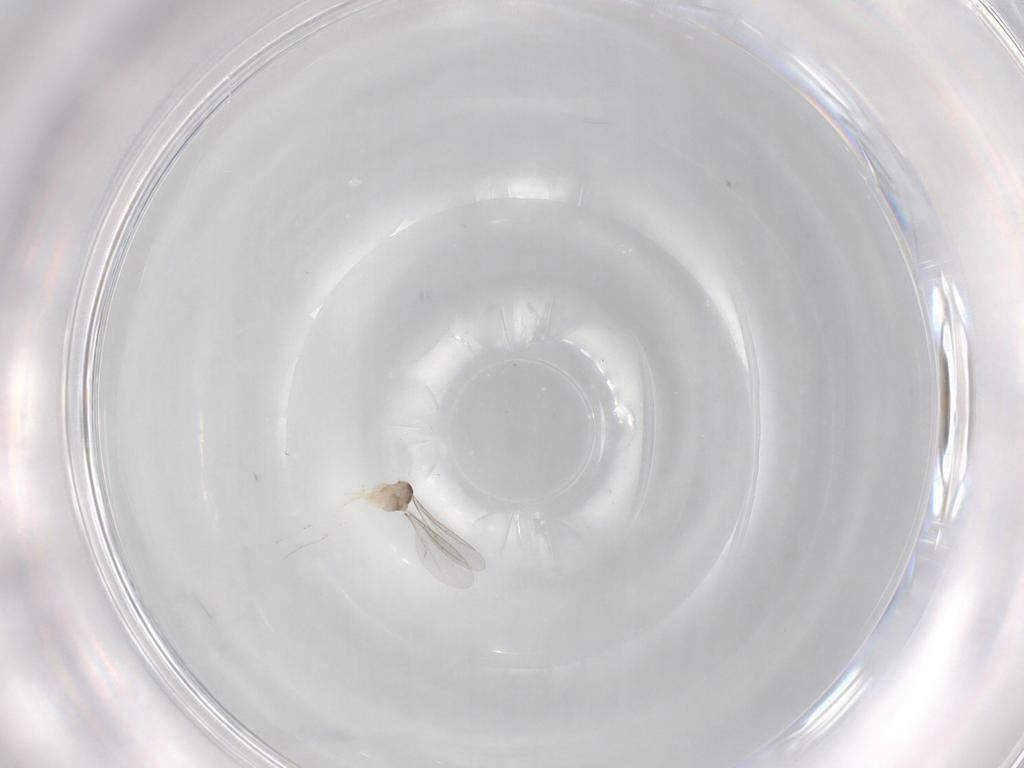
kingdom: Animalia
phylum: Arthropoda
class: Insecta
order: Diptera
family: Cecidomyiidae
